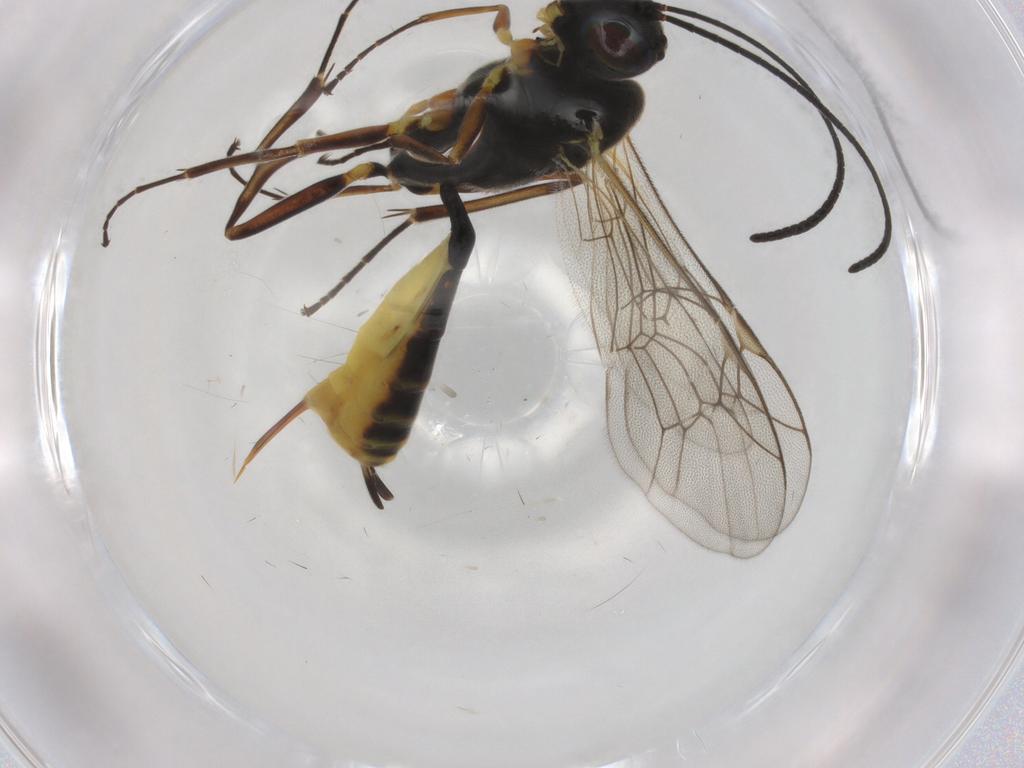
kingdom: Animalia
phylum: Arthropoda
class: Insecta
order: Hymenoptera
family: Ichneumonidae
